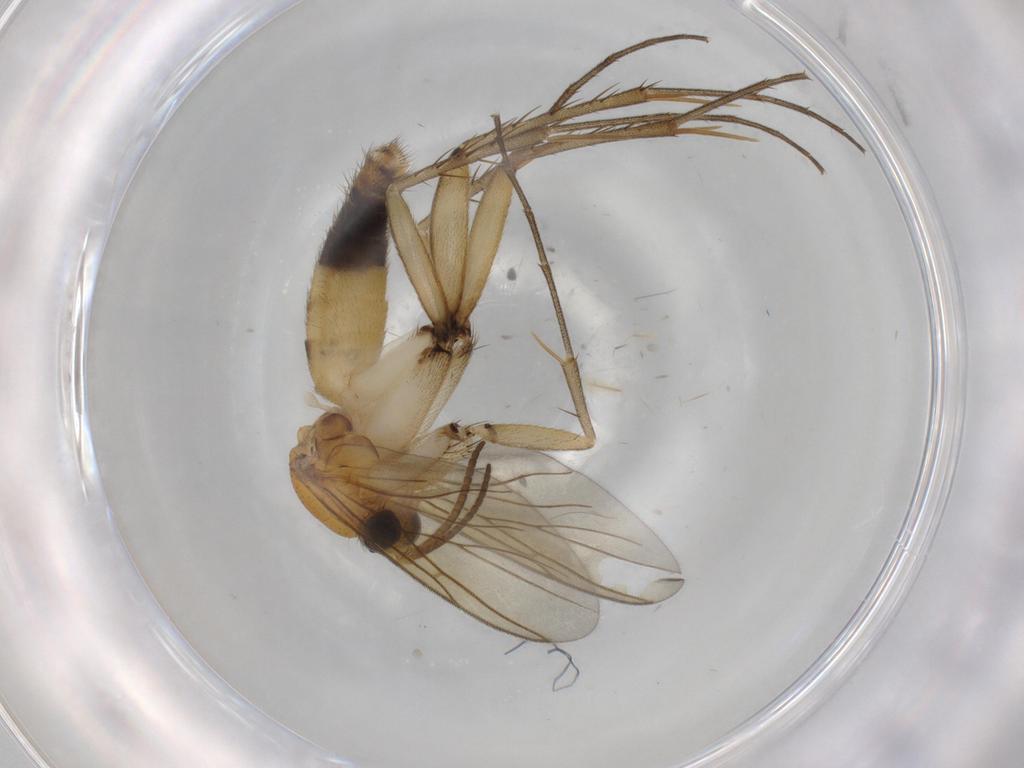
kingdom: Animalia
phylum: Arthropoda
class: Insecta
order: Diptera
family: Mycetophilidae
